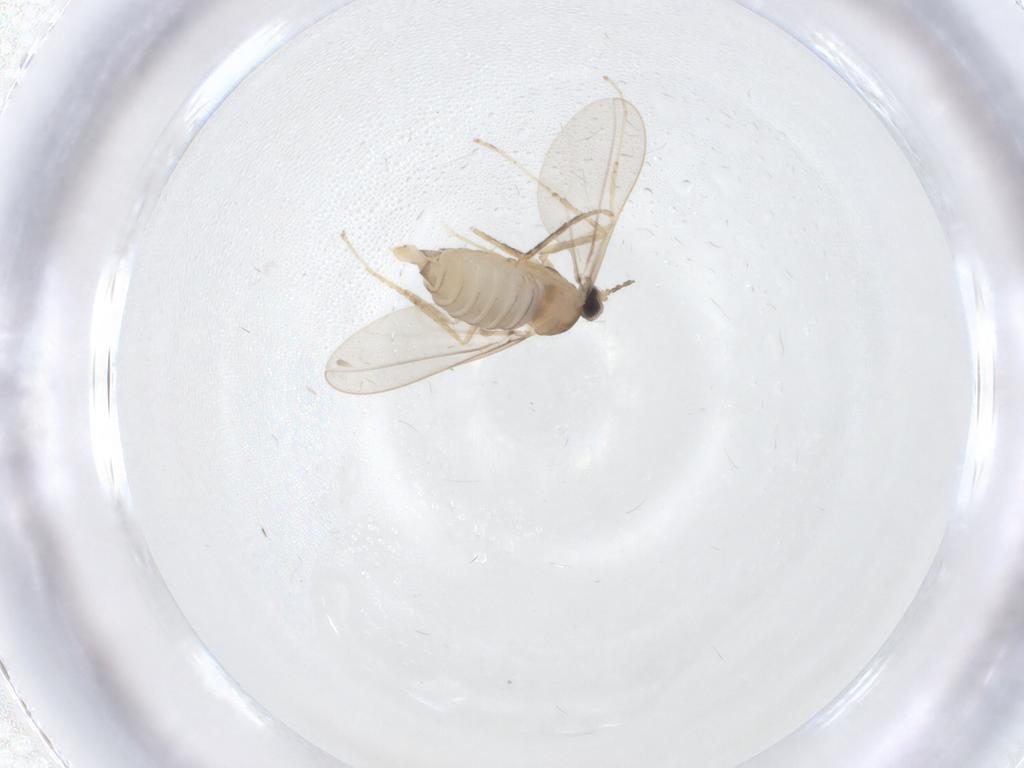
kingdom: Animalia
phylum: Arthropoda
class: Insecta
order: Diptera
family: Cecidomyiidae
